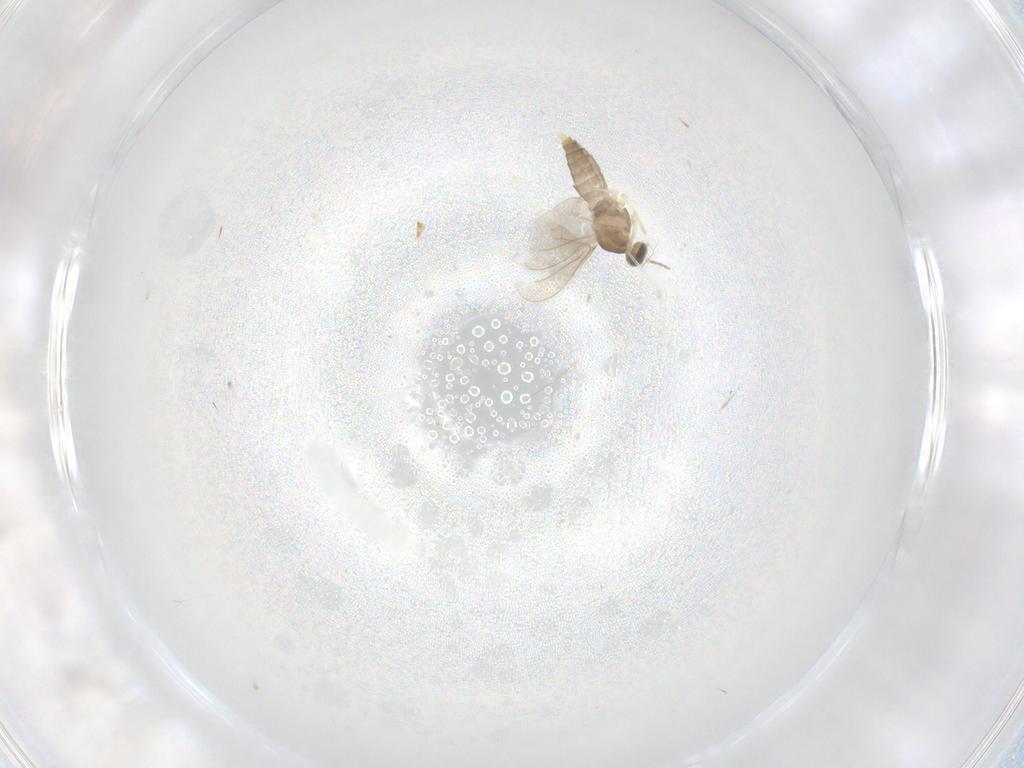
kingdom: Animalia
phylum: Arthropoda
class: Insecta
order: Diptera
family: Cecidomyiidae
